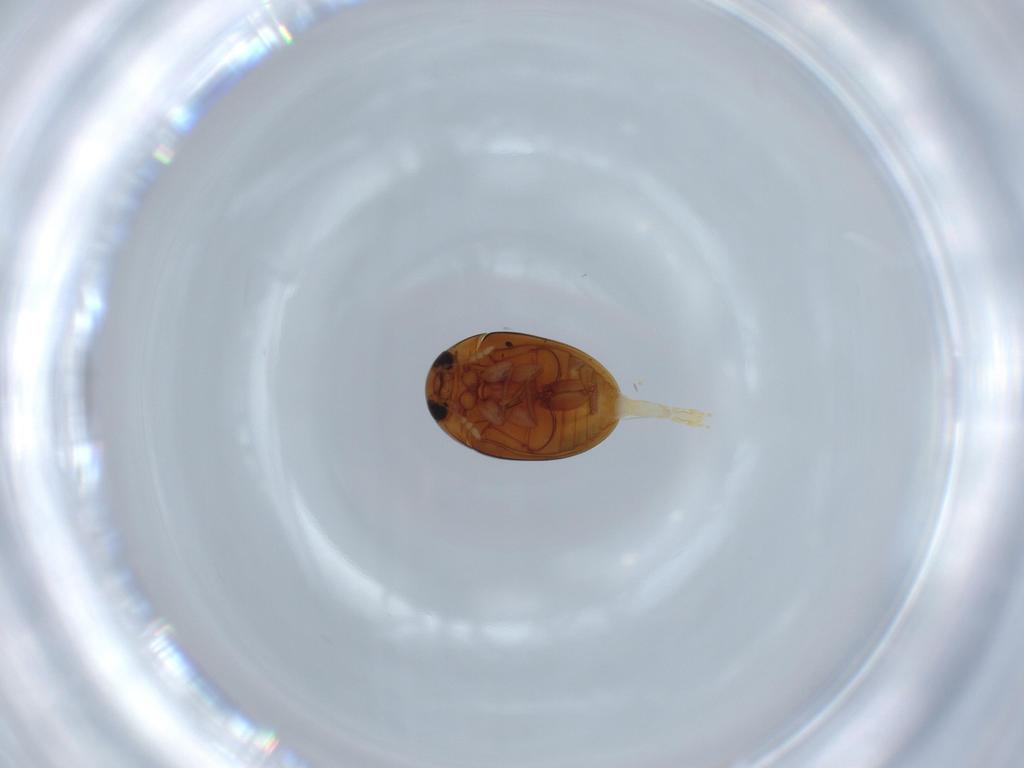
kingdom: Animalia
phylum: Arthropoda
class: Insecta
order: Coleoptera
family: Phalacridae
